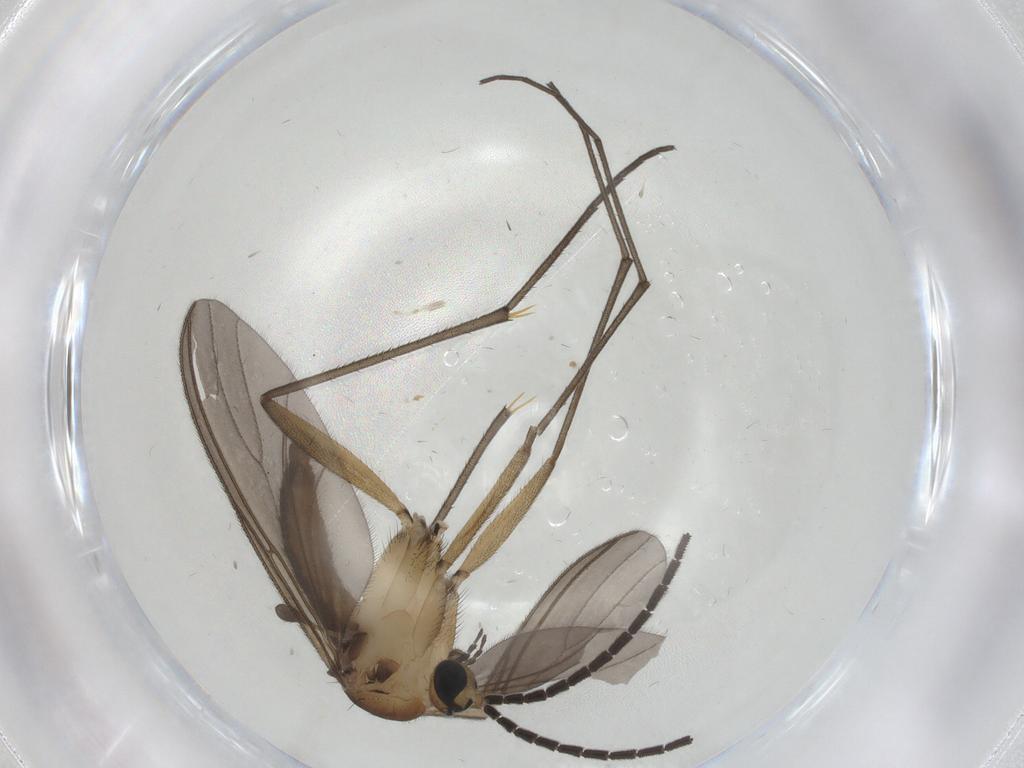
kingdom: Animalia
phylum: Arthropoda
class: Insecta
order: Diptera
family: Sciaridae
